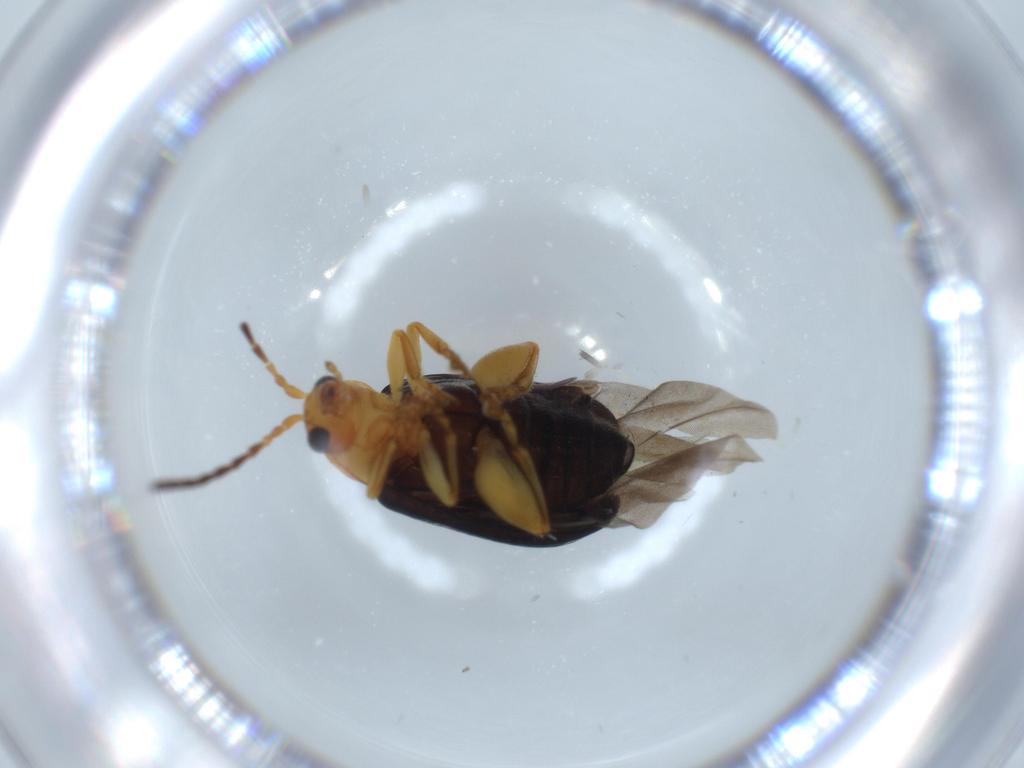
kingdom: Animalia
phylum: Arthropoda
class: Insecta
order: Coleoptera
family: Chrysomelidae
